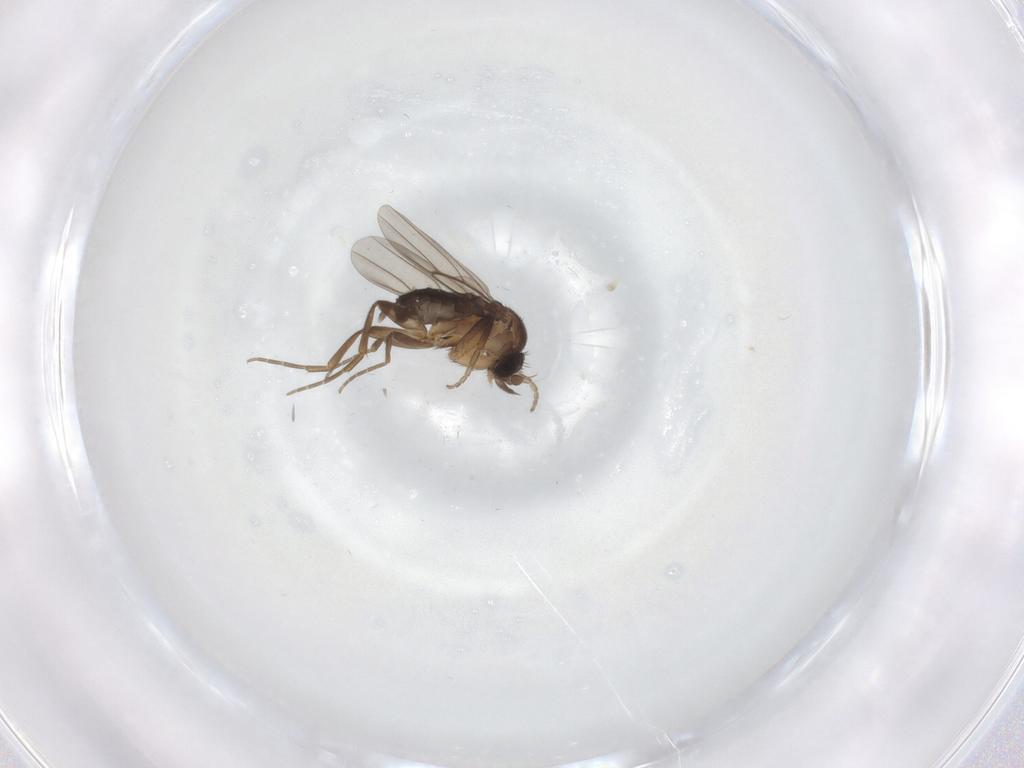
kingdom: Animalia
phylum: Arthropoda
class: Insecta
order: Diptera
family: Phoridae
